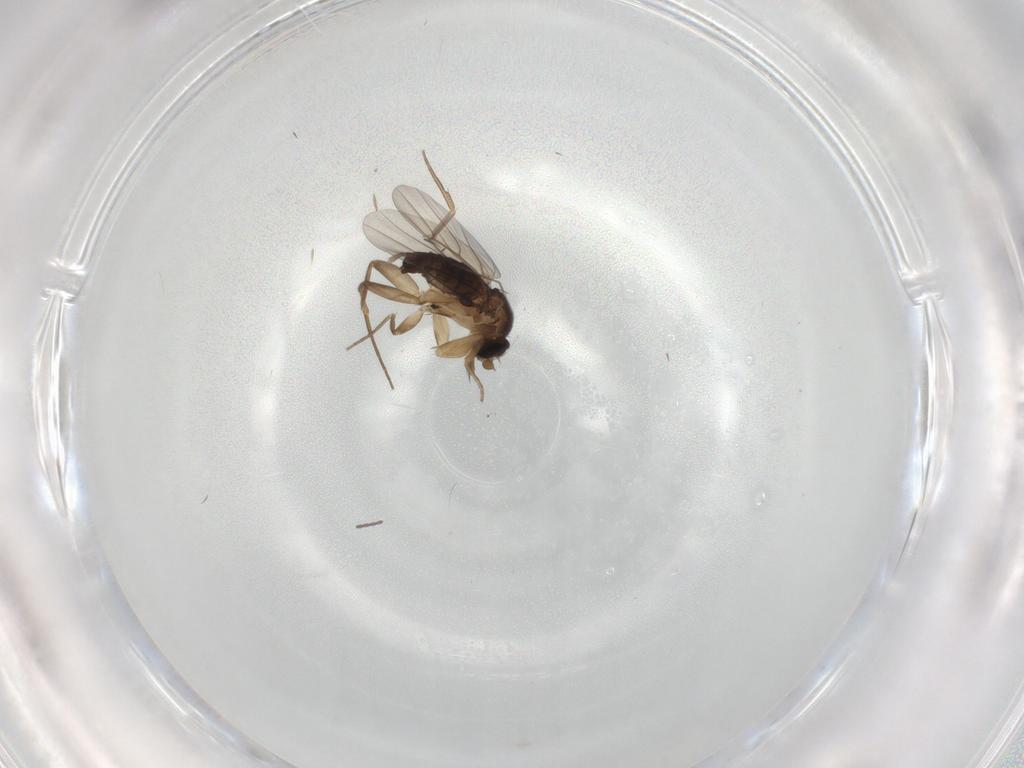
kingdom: Animalia
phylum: Arthropoda
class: Insecta
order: Diptera
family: Phoridae
